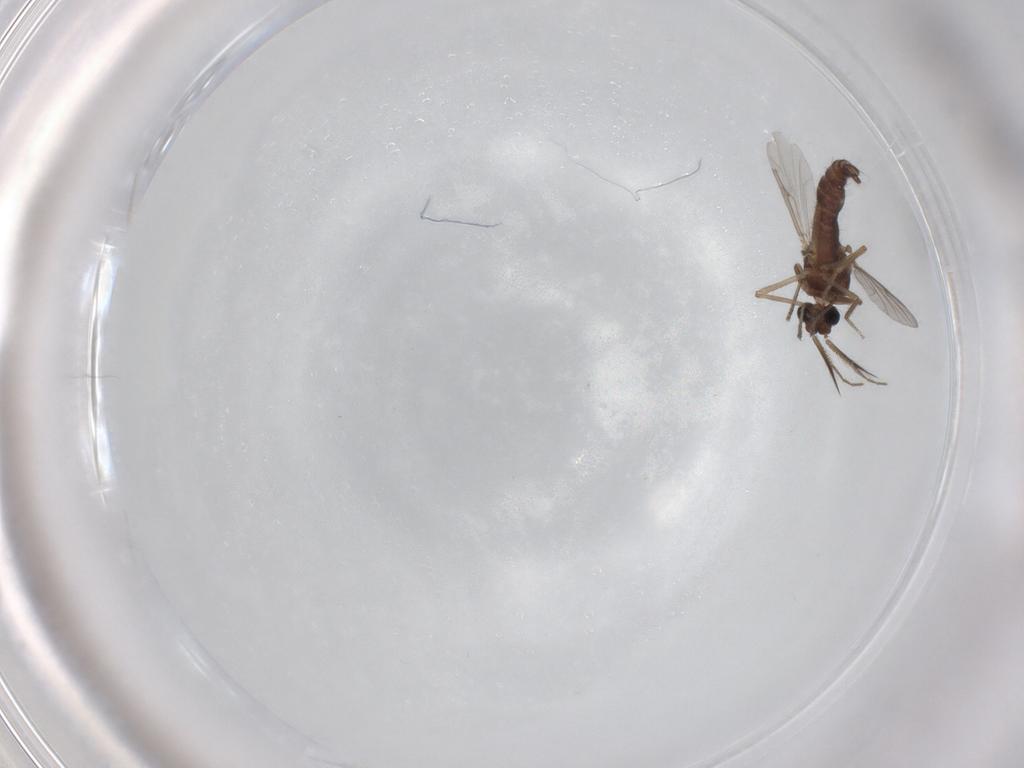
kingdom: Animalia
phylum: Arthropoda
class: Insecta
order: Diptera
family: Ceratopogonidae
